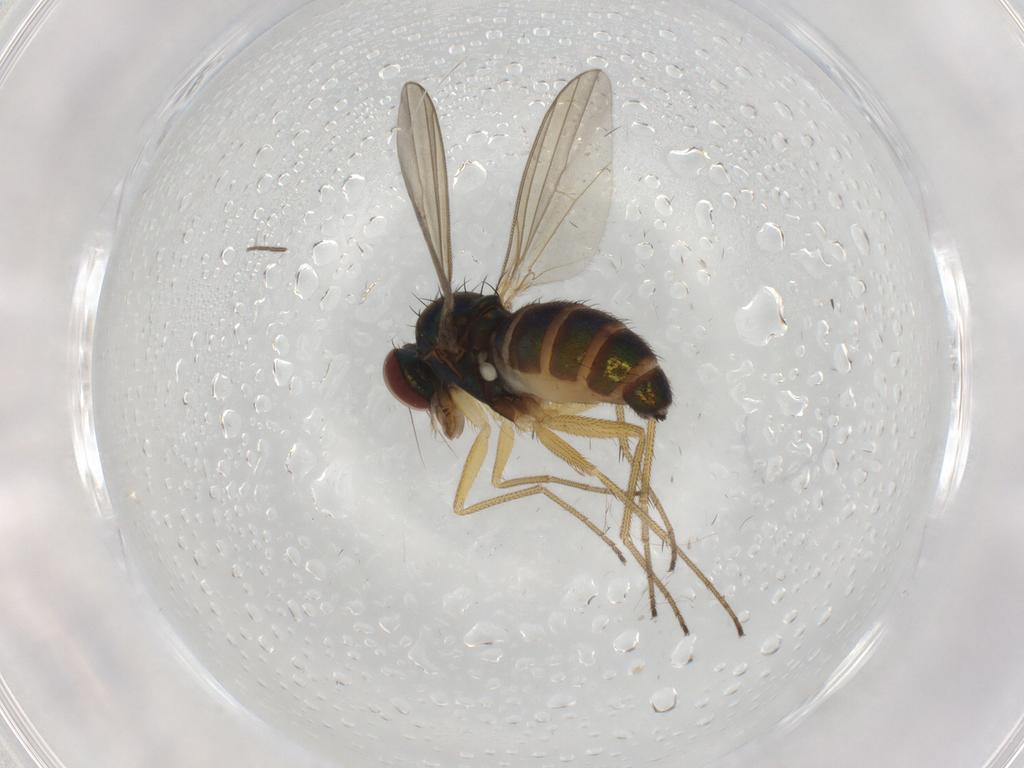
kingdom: Animalia
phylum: Arthropoda
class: Insecta
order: Diptera
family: Dolichopodidae
